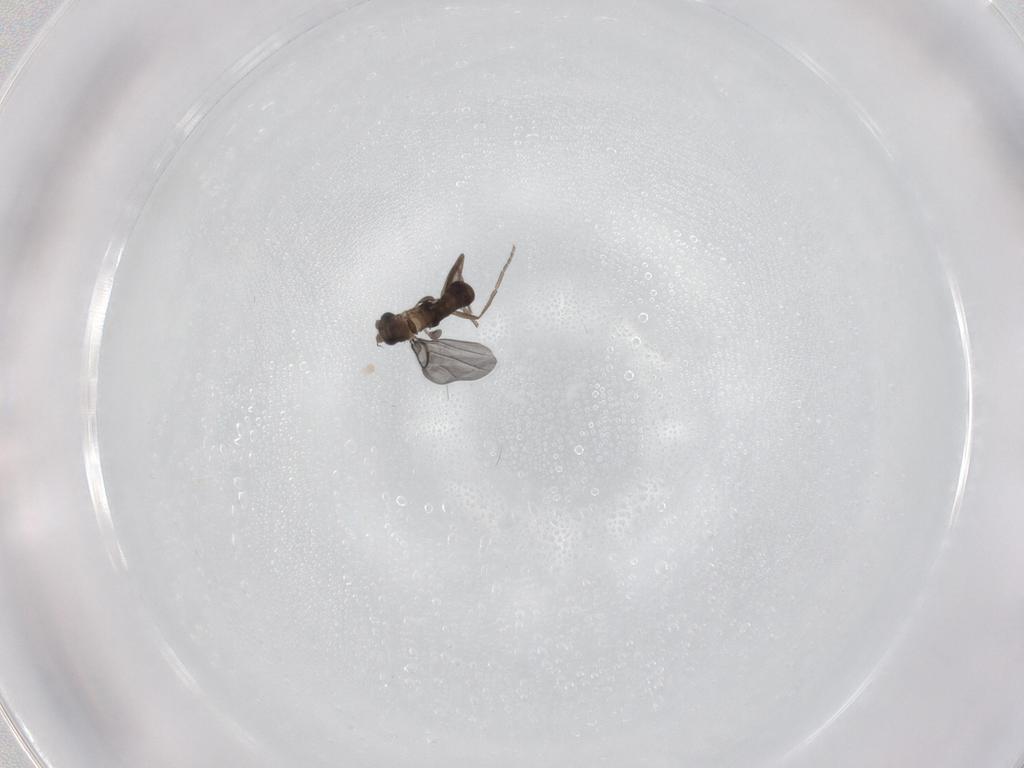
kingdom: Animalia
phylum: Arthropoda
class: Insecta
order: Diptera
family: Phoridae
